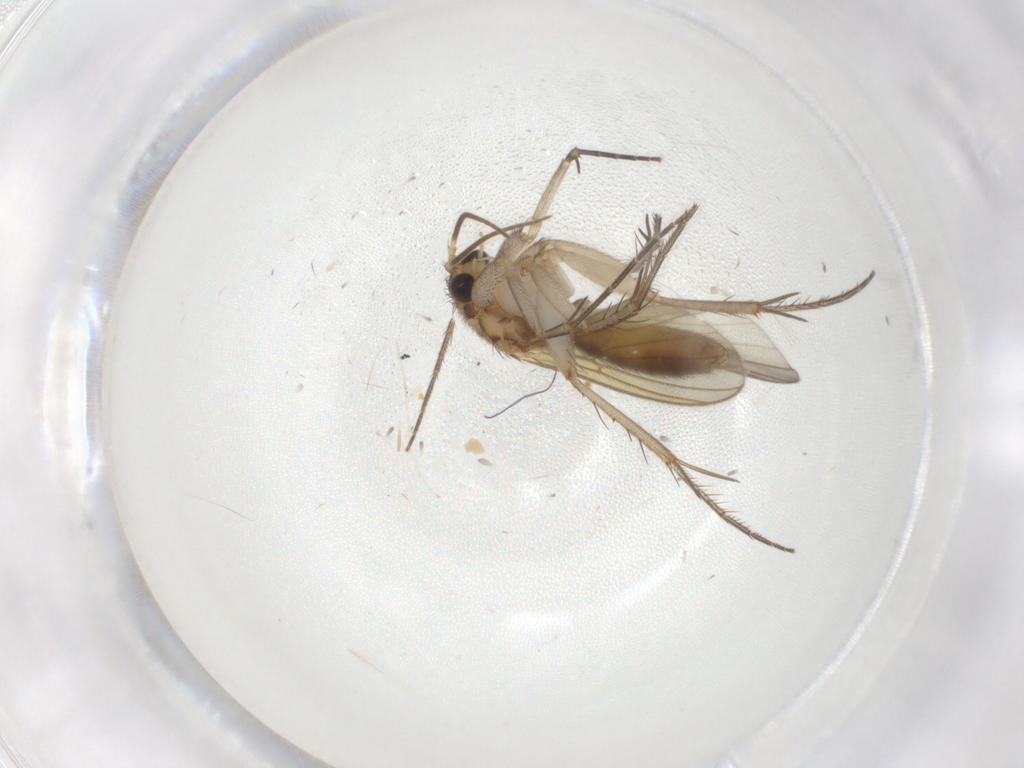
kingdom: Animalia
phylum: Arthropoda
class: Insecta
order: Diptera
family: Mycetophilidae
